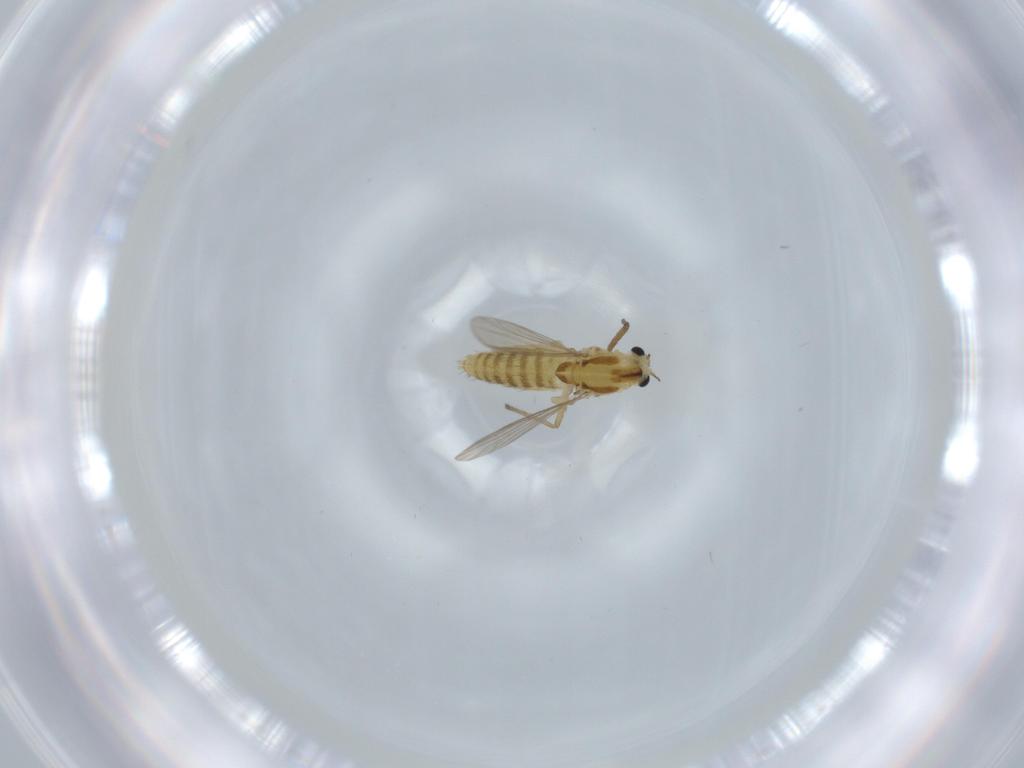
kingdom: Animalia
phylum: Arthropoda
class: Insecta
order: Diptera
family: Chironomidae
